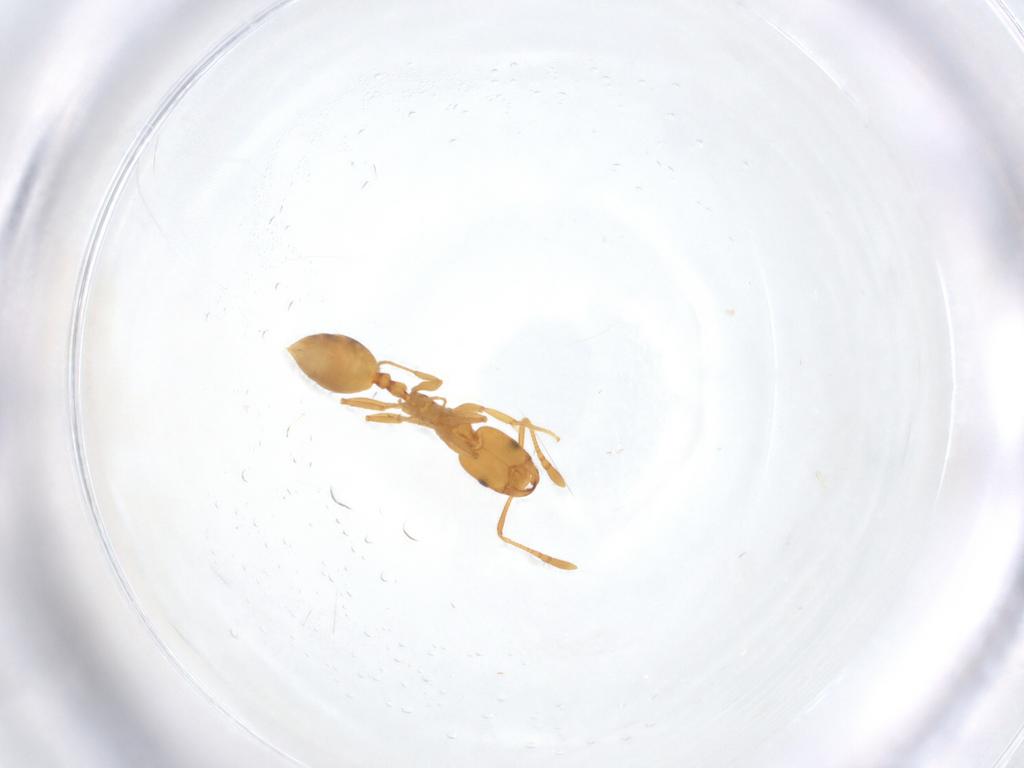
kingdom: Animalia
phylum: Arthropoda
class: Insecta
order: Hymenoptera
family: Formicidae
